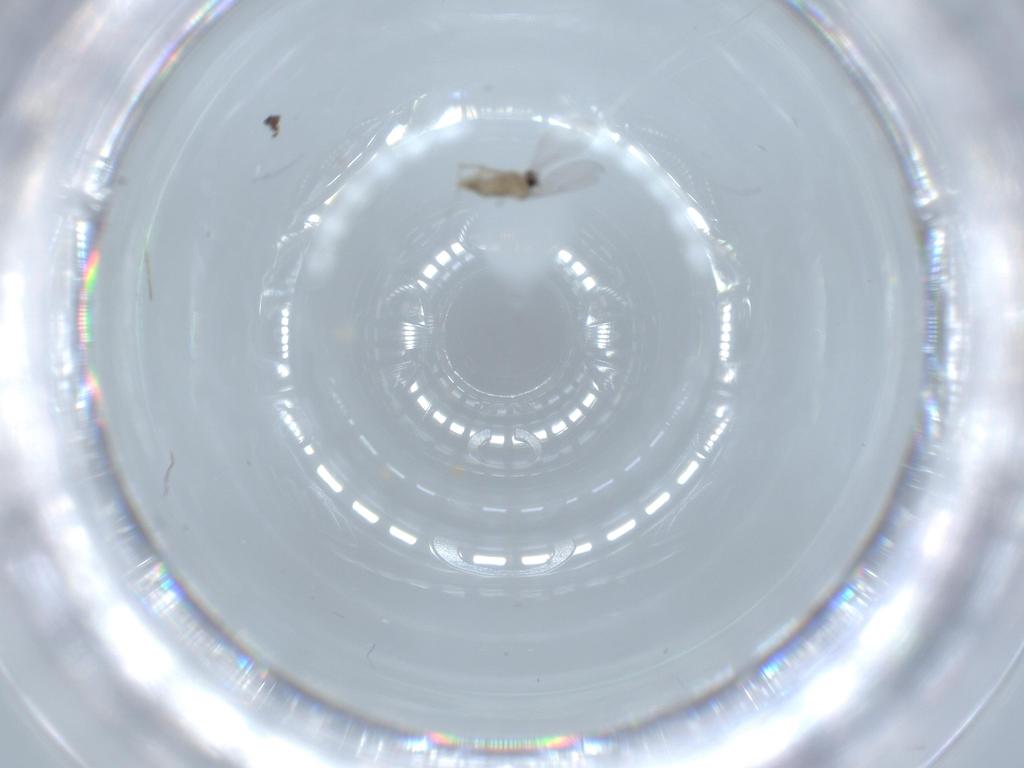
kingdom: Animalia
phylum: Arthropoda
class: Insecta
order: Diptera
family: Cecidomyiidae
